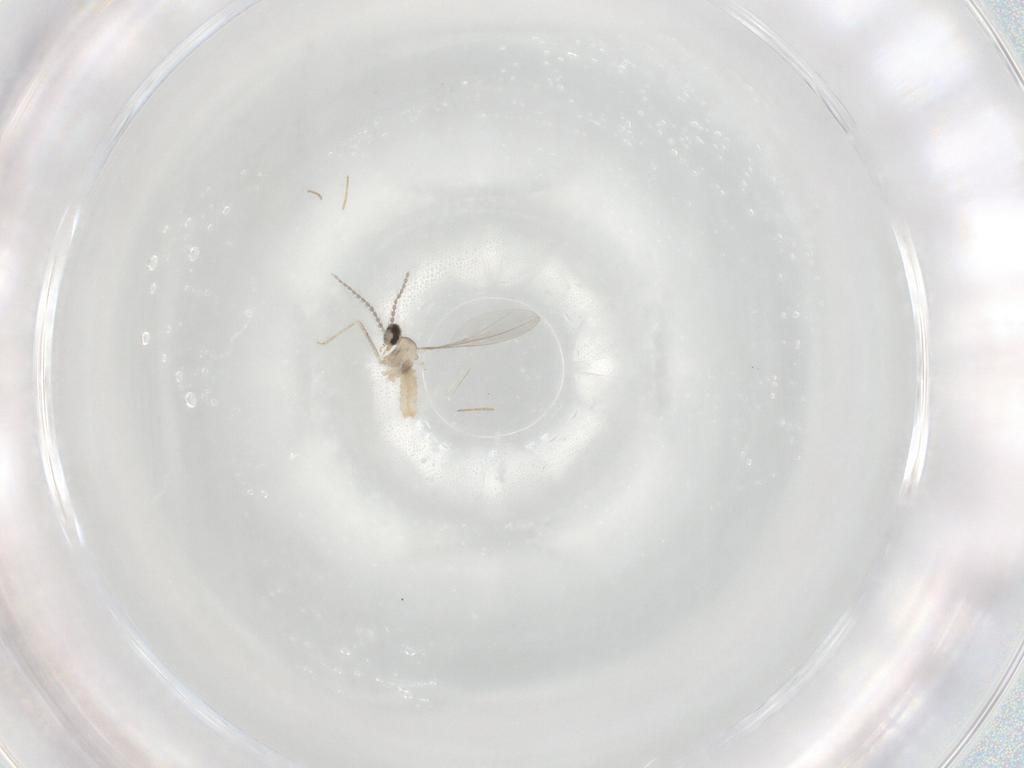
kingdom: Animalia
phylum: Arthropoda
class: Insecta
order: Diptera
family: Chironomidae
